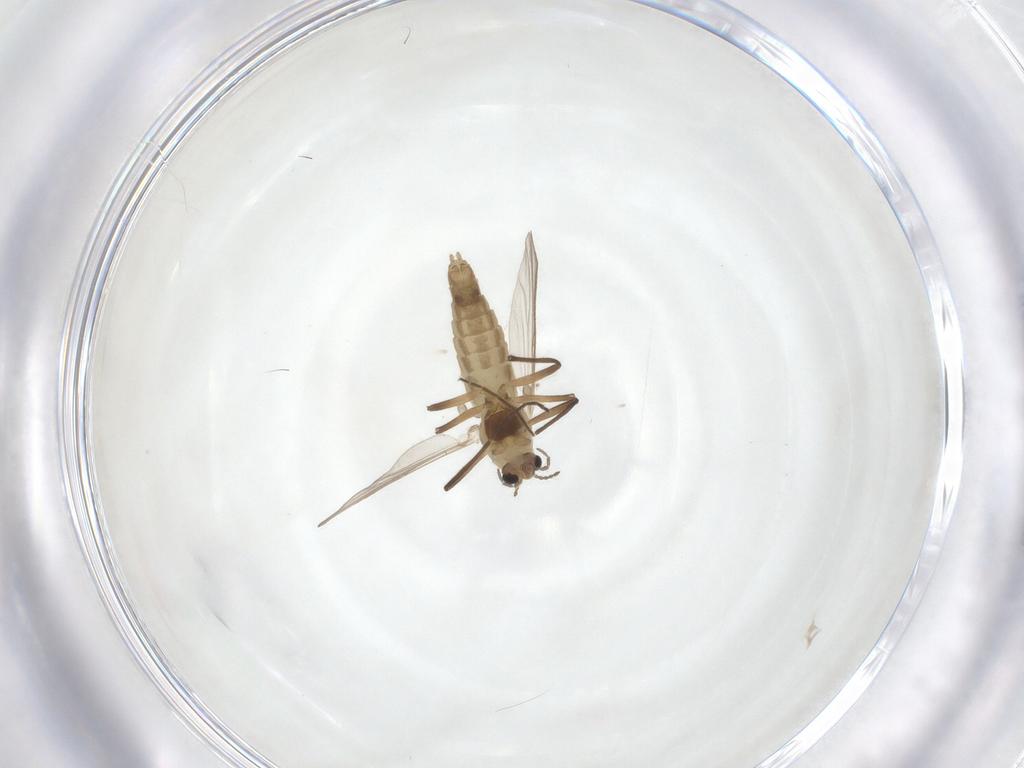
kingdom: Animalia
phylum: Arthropoda
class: Insecta
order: Diptera
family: Chironomidae
